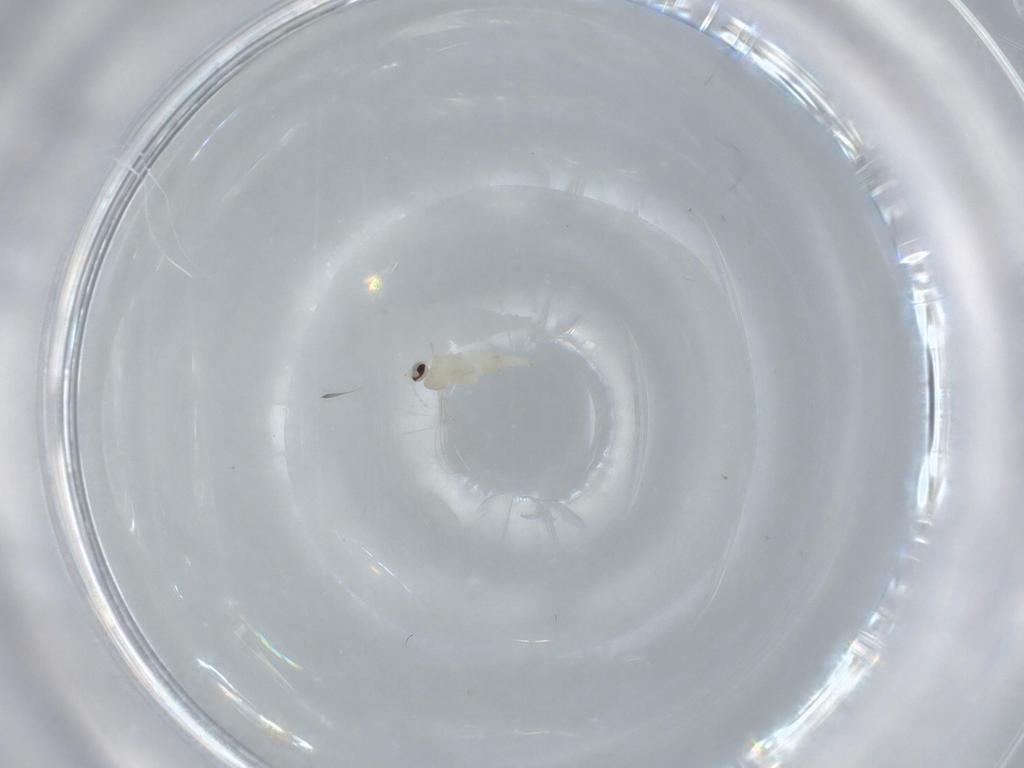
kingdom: Animalia
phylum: Arthropoda
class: Insecta
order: Diptera
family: Cecidomyiidae
